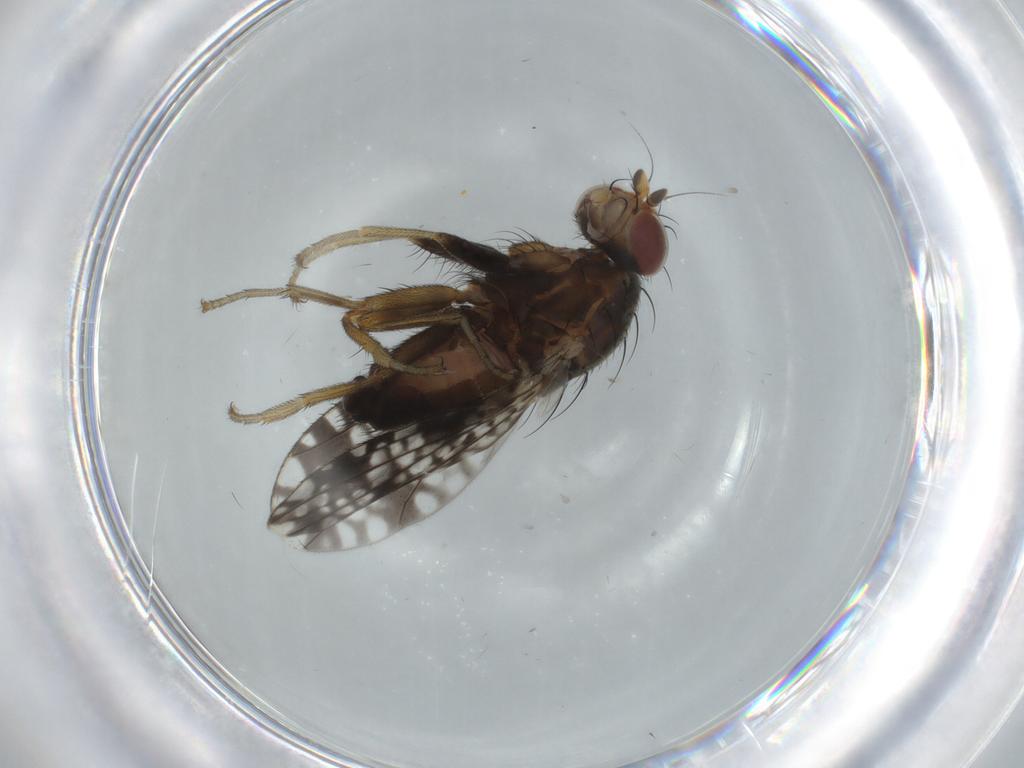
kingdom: Animalia
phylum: Arthropoda
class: Insecta
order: Diptera
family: Tephritidae
